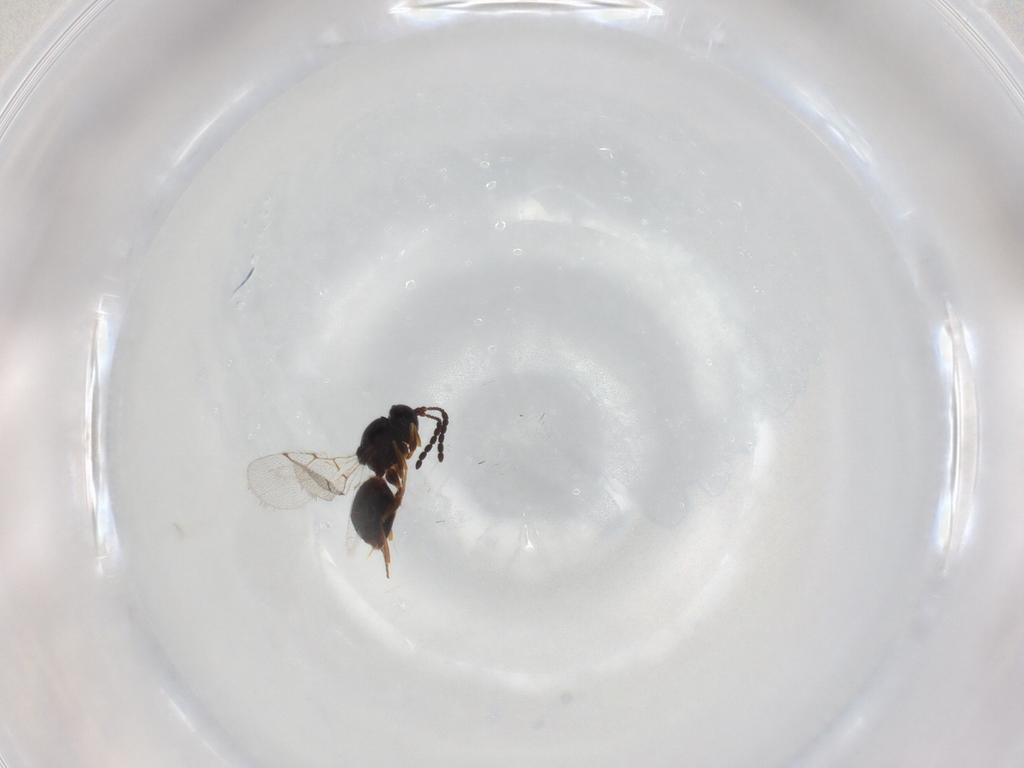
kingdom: Animalia
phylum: Arthropoda
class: Insecta
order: Hymenoptera
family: Figitidae
